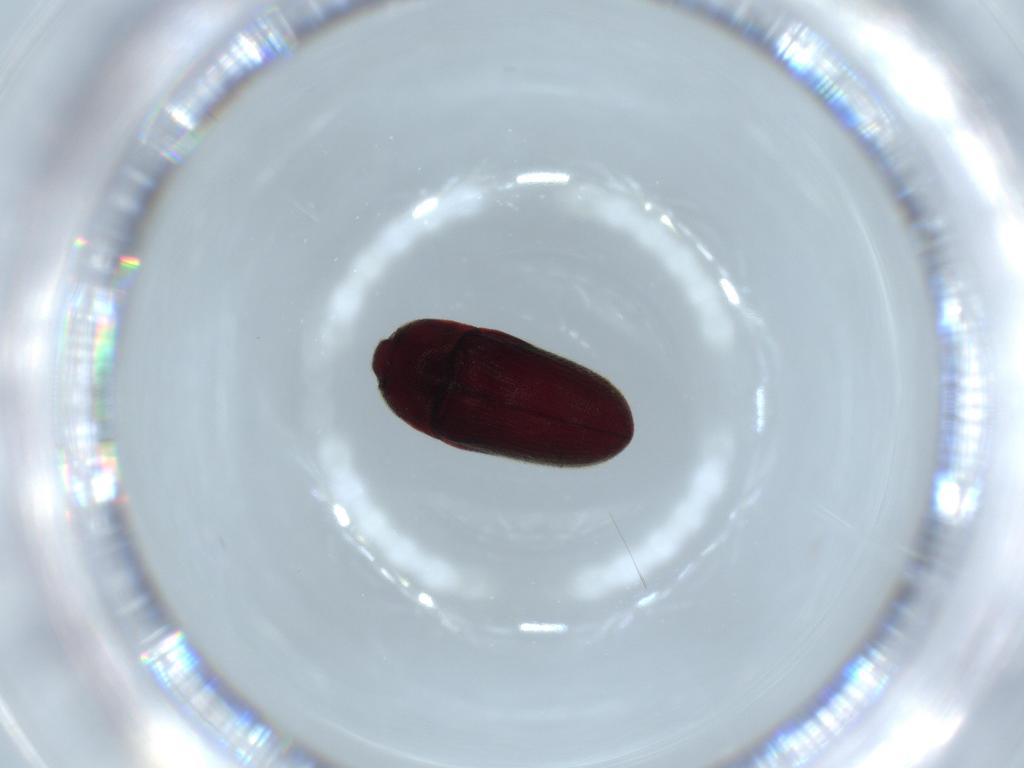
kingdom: Animalia
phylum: Arthropoda
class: Insecta
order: Coleoptera
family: Throscidae
